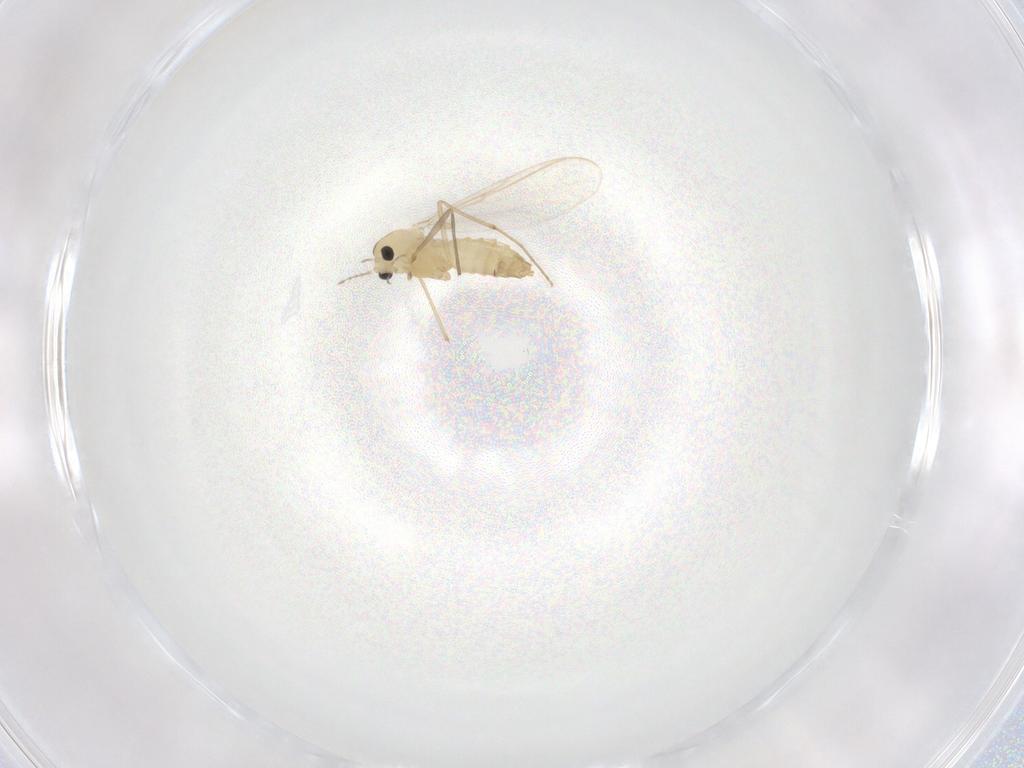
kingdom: Animalia
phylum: Arthropoda
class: Insecta
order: Diptera
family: Chironomidae
